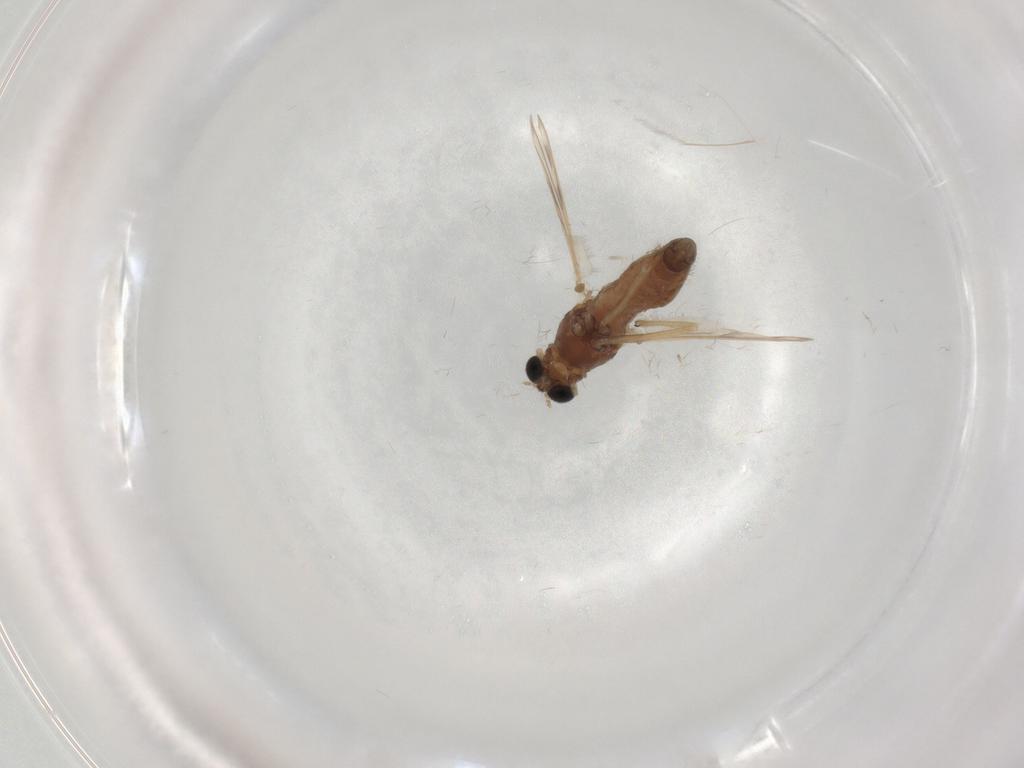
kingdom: Animalia
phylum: Arthropoda
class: Insecta
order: Diptera
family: Chironomidae
